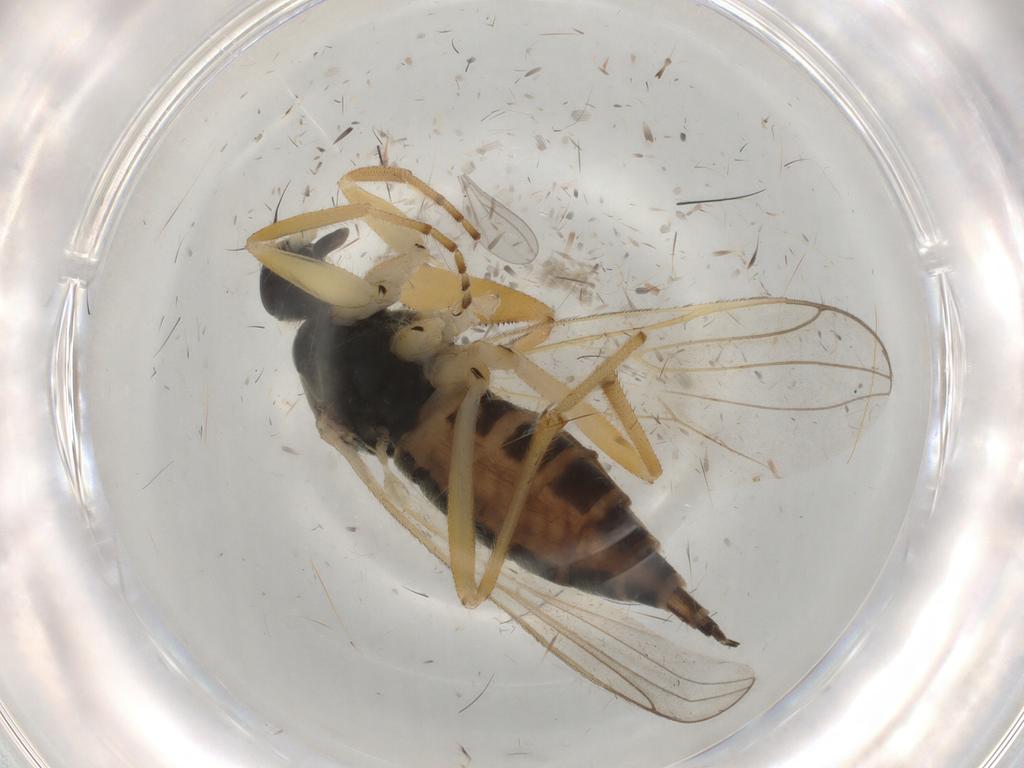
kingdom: Animalia
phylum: Arthropoda
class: Insecta
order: Diptera
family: Hybotidae
